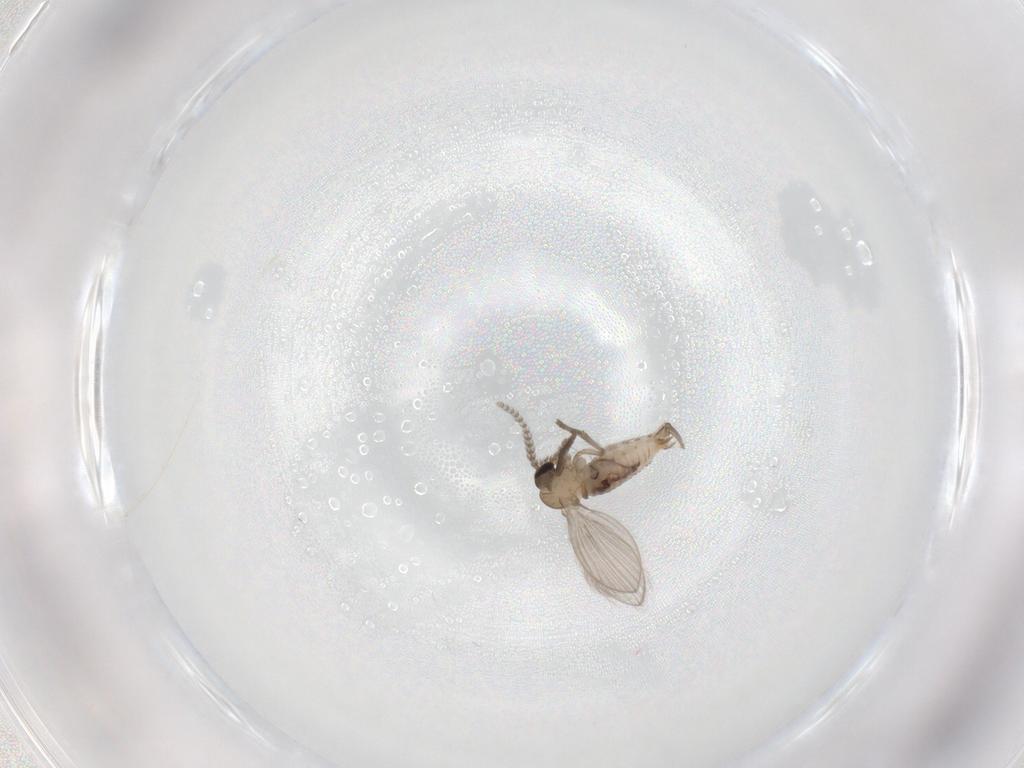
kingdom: Animalia
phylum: Arthropoda
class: Insecta
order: Diptera
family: Psychodidae
